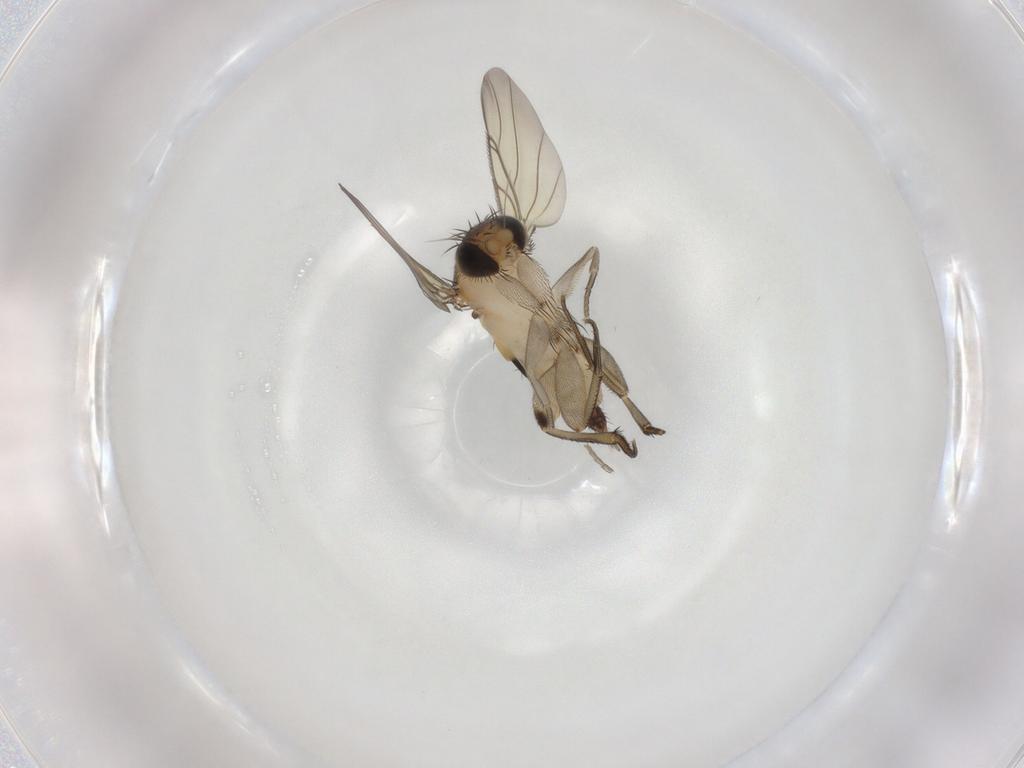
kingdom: Animalia
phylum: Arthropoda
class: Insecta
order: Diptera
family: Phoridae
